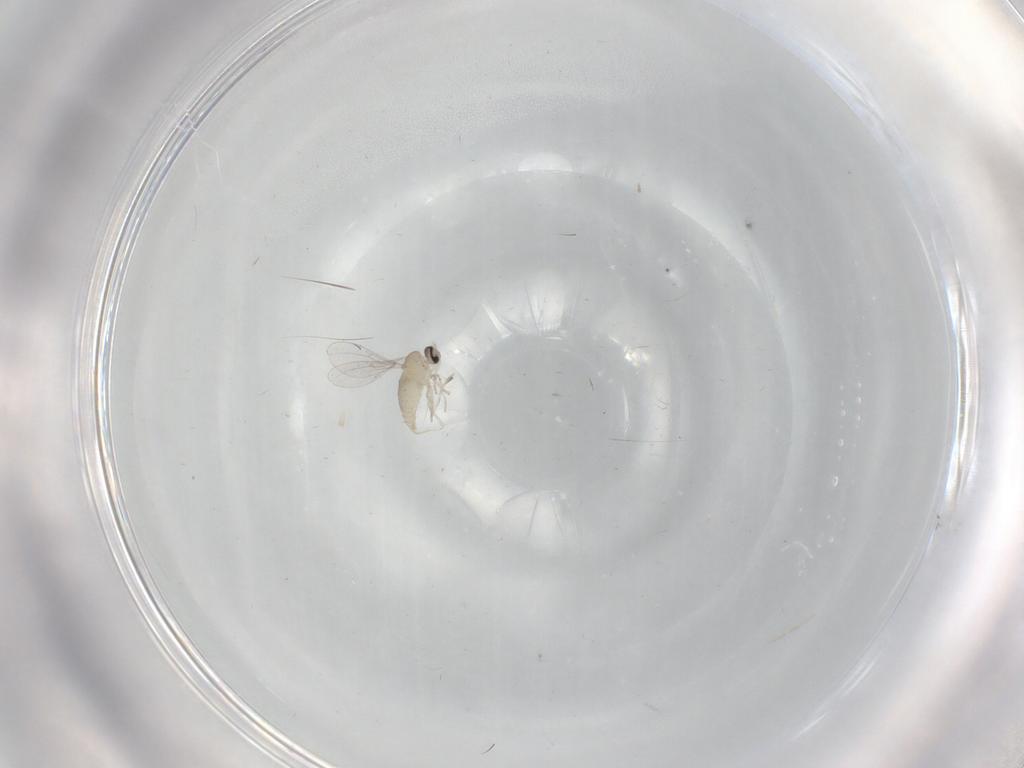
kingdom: Animalia
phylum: Arthropoda
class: Insecta
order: Diptera
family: Cecidomyiidae
